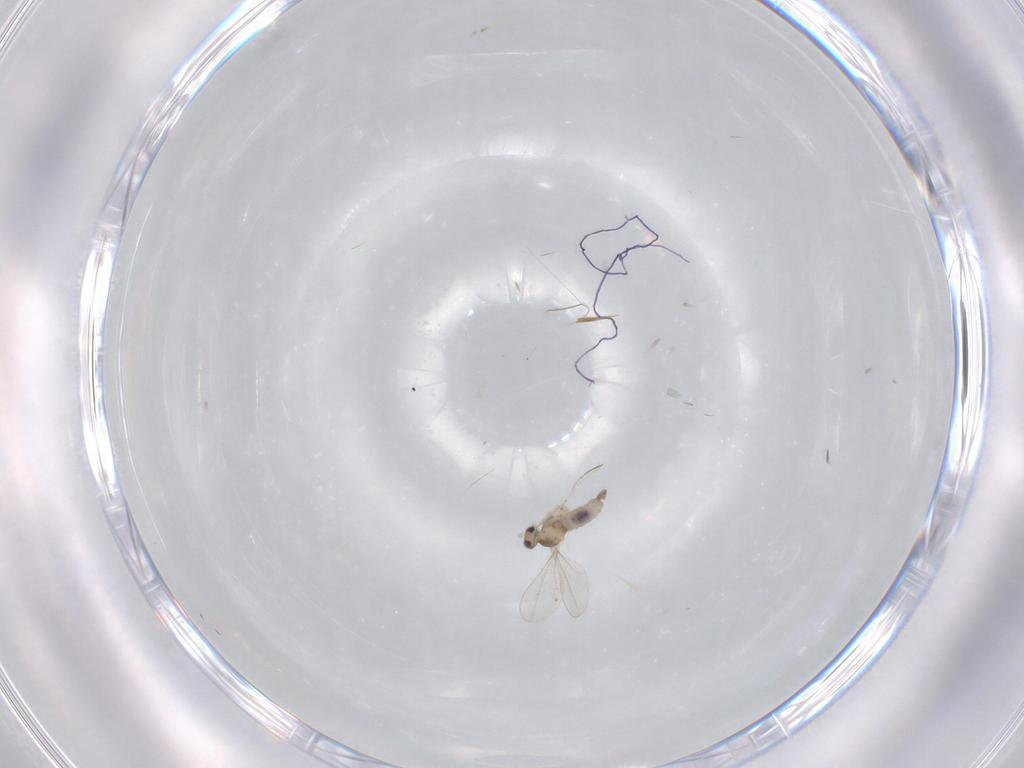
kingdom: Animalia
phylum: Arthropoda
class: Insecta
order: Diptera
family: Cecidomyiidae
